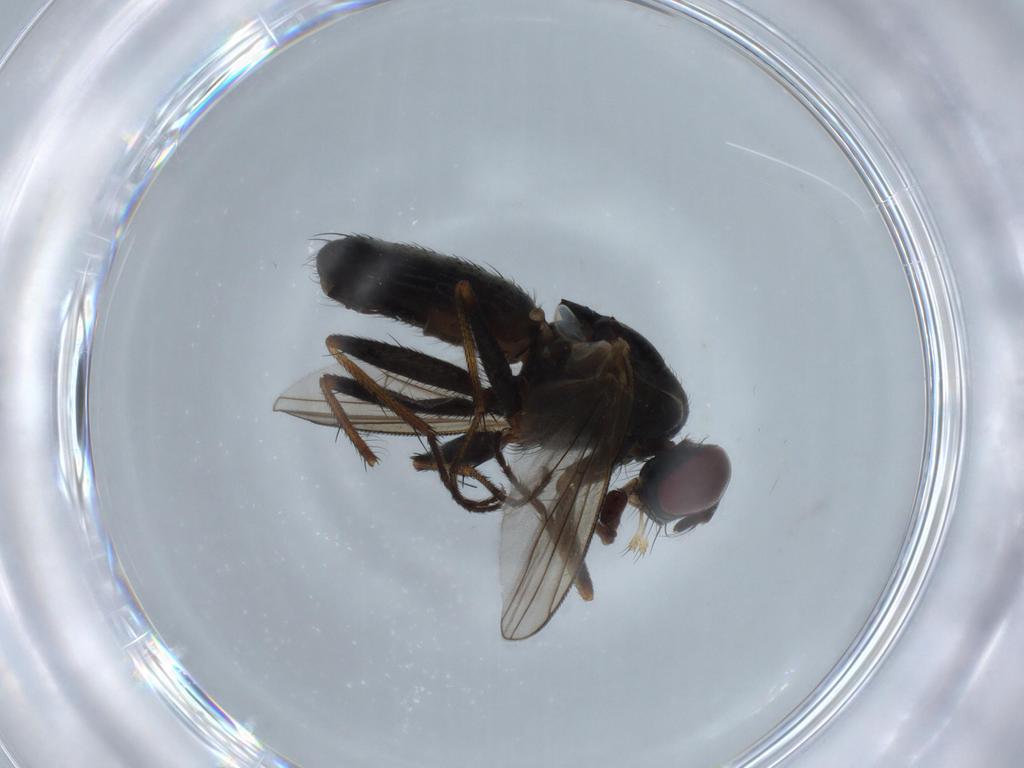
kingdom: Animalia
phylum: Arthropoda
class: Insecta
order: Diptera
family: Muscidae
